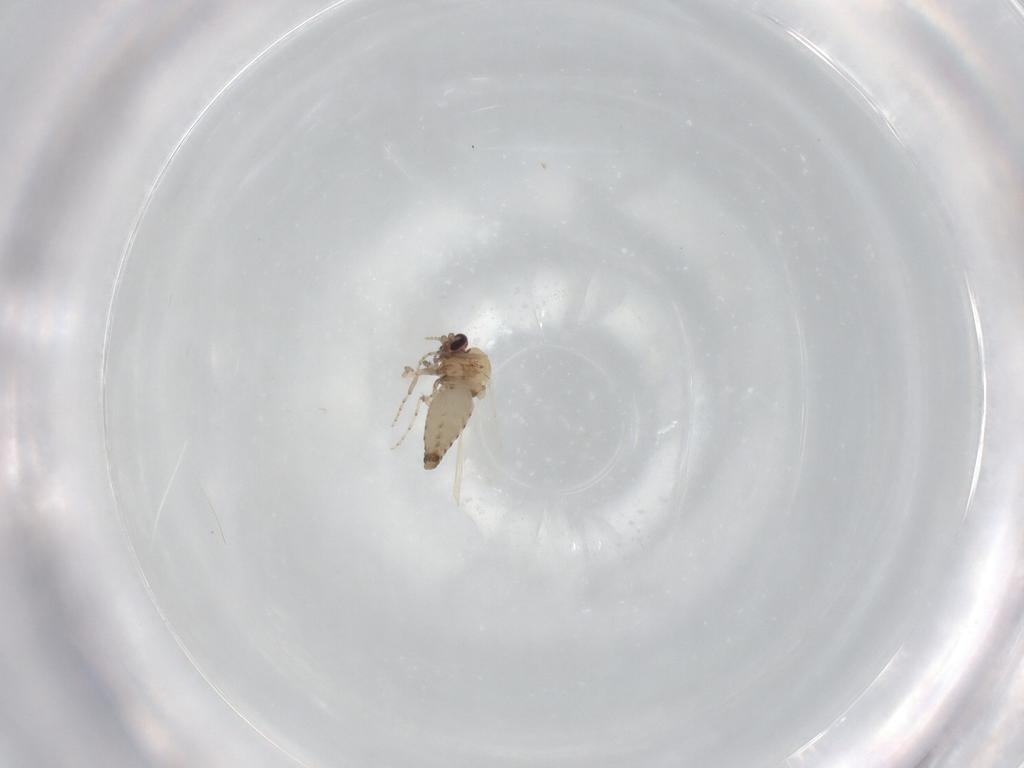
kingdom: Animalia
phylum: Arthropoda
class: Insecta
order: Diptera
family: Ceratopogonidae
